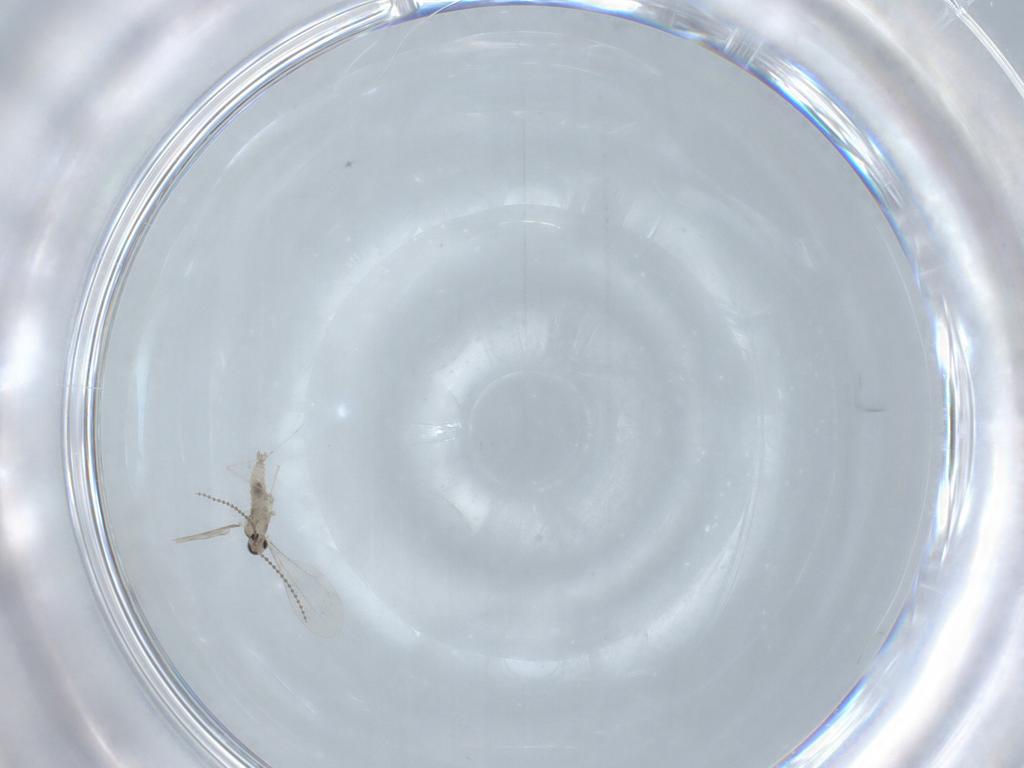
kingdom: Animalia
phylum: Arthropoda
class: Insecta
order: Diptera
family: Cecidomyiidae
